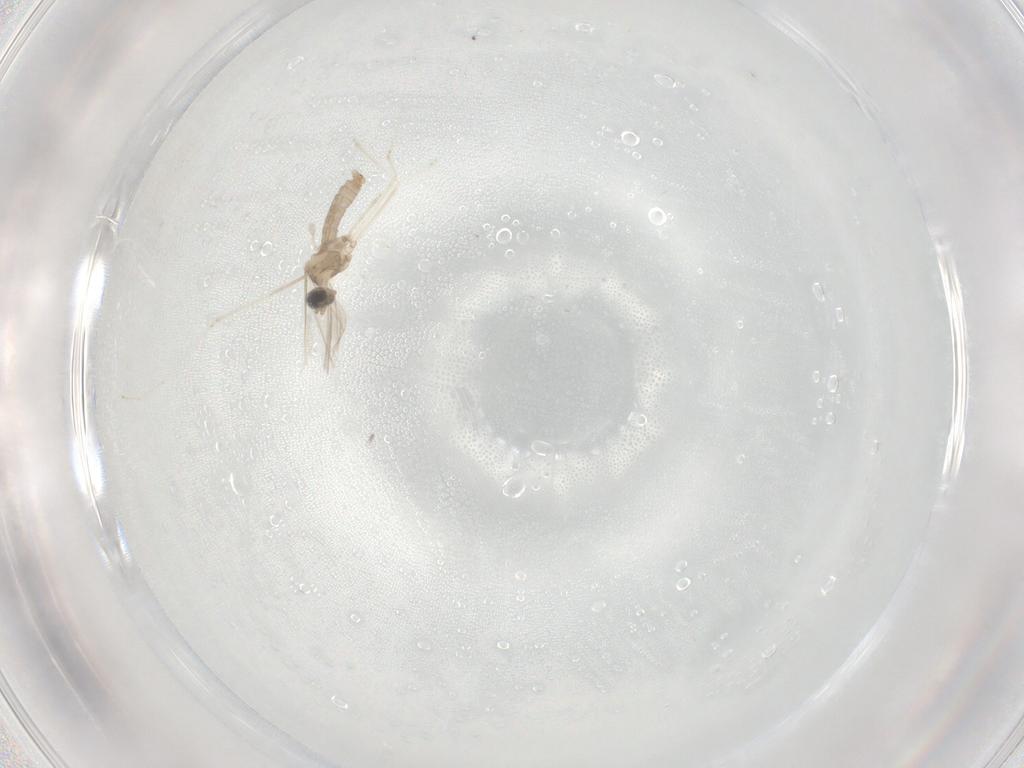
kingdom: Animalia
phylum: Arthropoda
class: Insecta
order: Diptera
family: Cecidomyiidae
